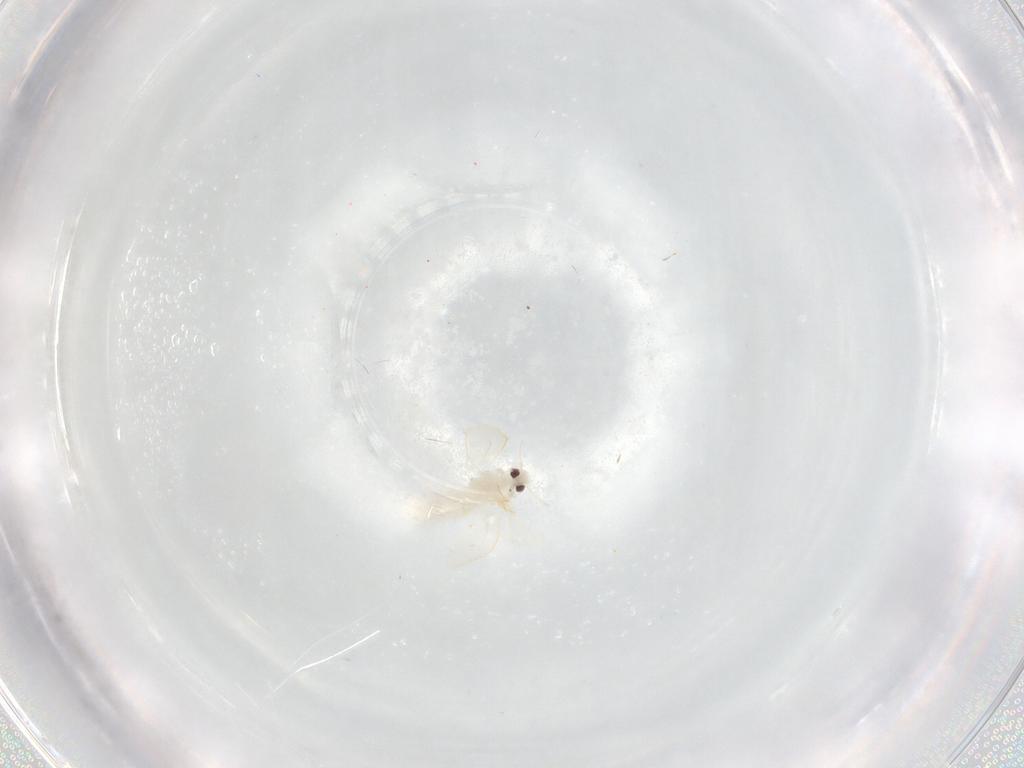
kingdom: Animalia
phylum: Arthropoda
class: Insecta
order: Hemiptera
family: Cicadellidae
